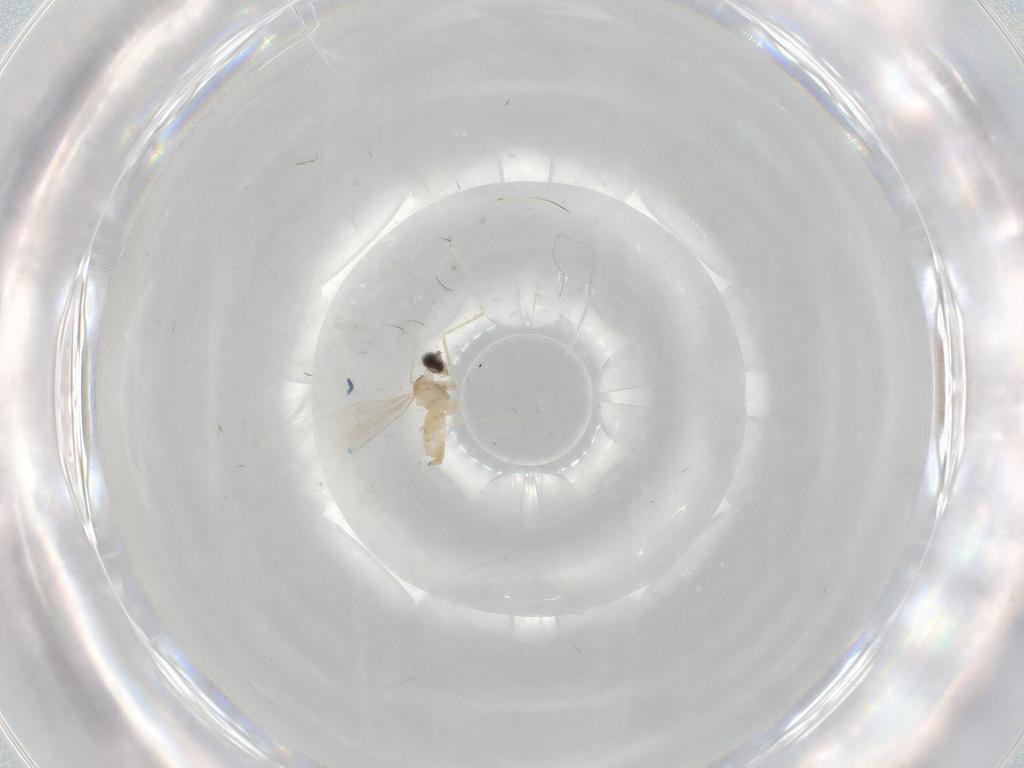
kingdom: Animalia
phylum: Arthropoda
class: Insecta
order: Diptera
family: Cecidomyiidae
